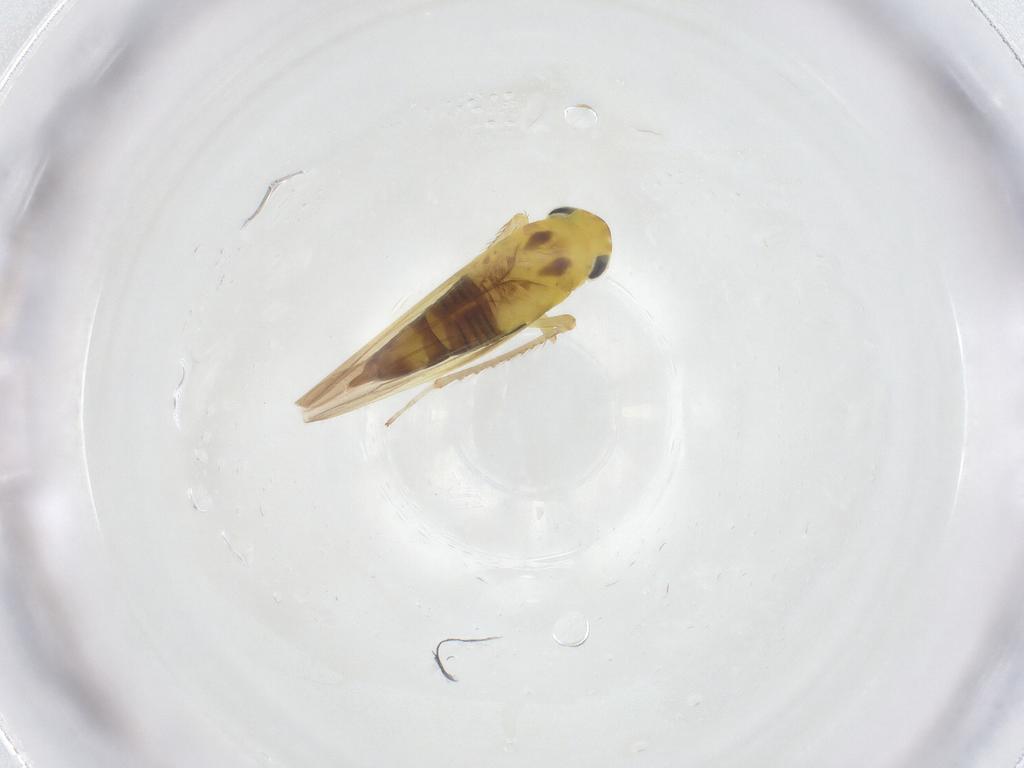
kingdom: Animalia
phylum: Arthropoda
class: Insecta
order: Hemiptera
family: Cicadellidae
